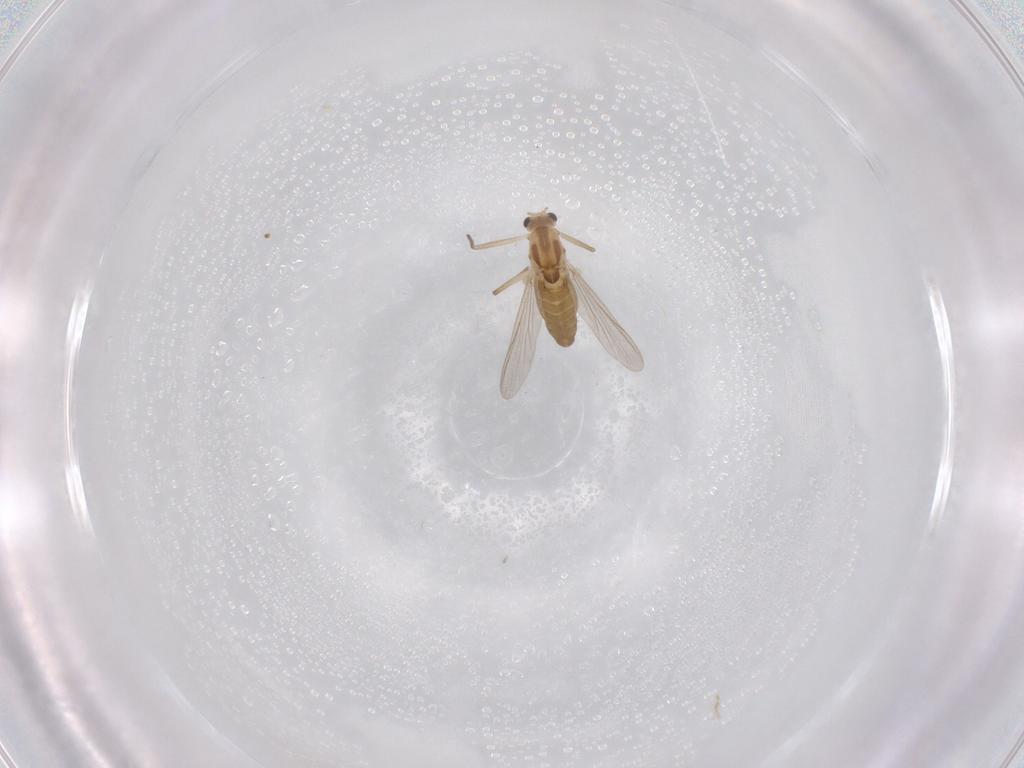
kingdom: Animalia
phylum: Arthropoda
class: Insecta
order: Diptera
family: Chironomidae
